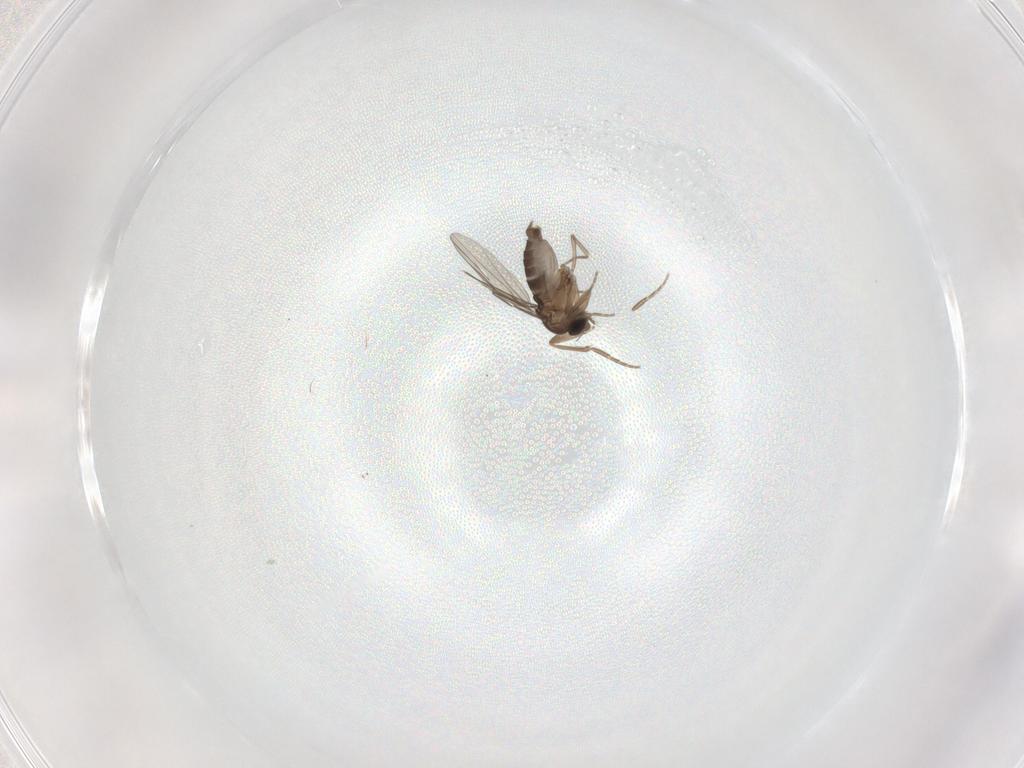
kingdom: Animalia
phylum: Arthropoda
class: Insecta
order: Diptera
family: Phoridae
